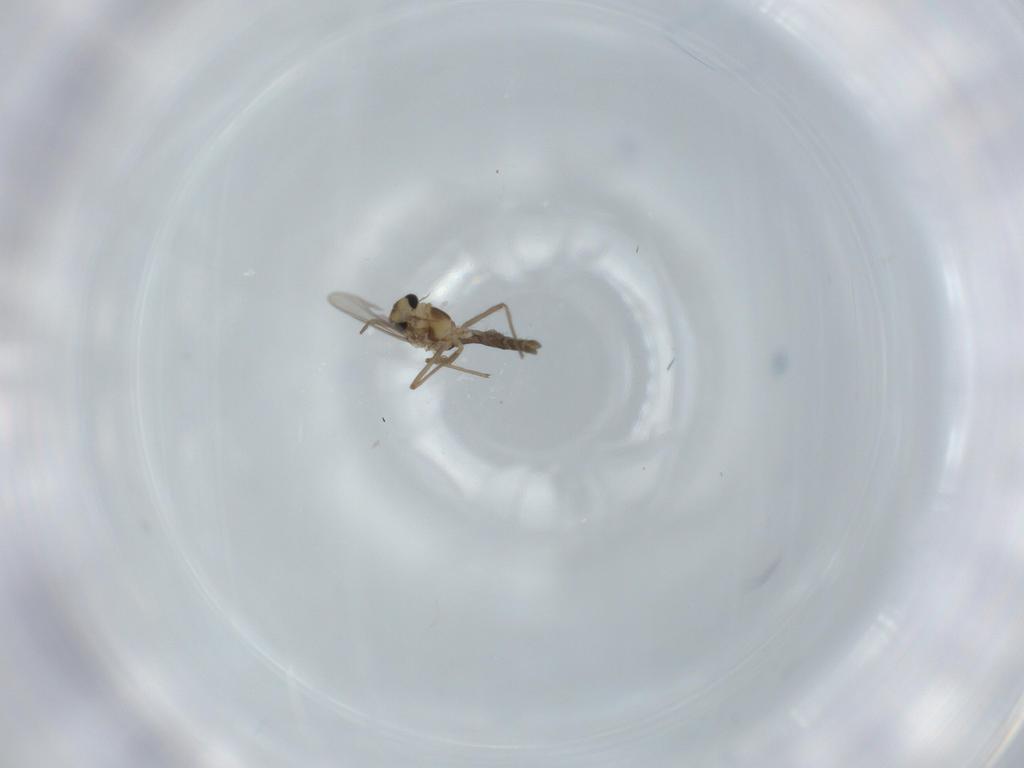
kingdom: Animalia
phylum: Arthropoda
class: Insecta
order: Diptera
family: Chironomidae
